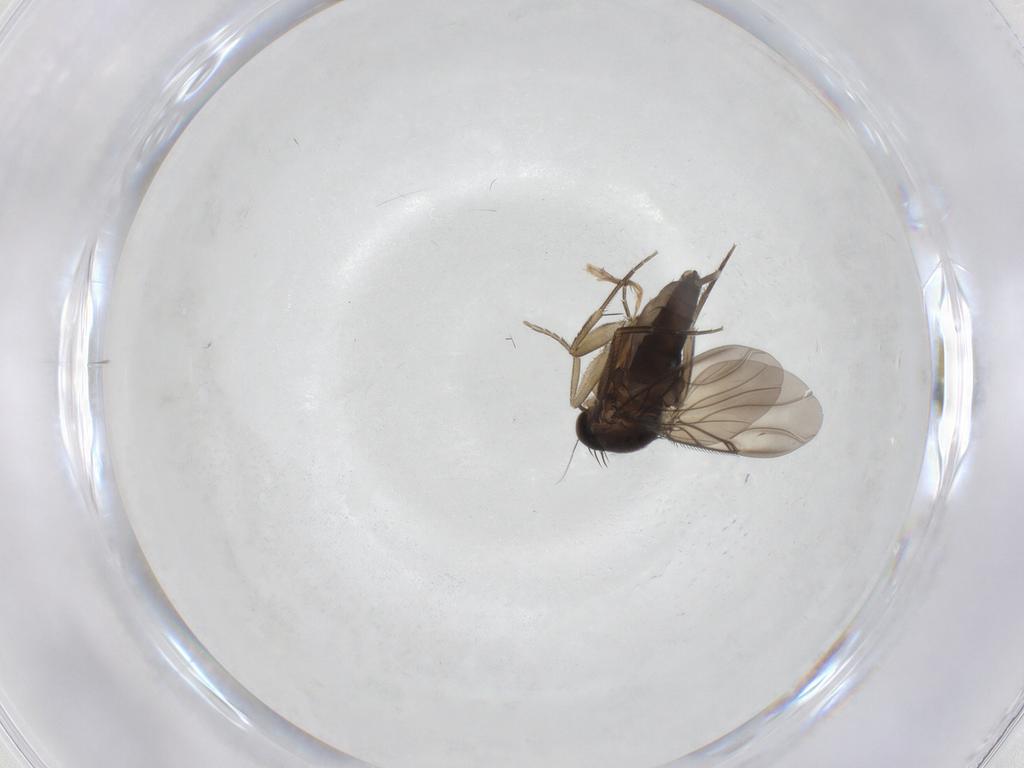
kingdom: Animalia
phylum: Arthropoda
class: Insecta
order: Diptera
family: Phoridae
